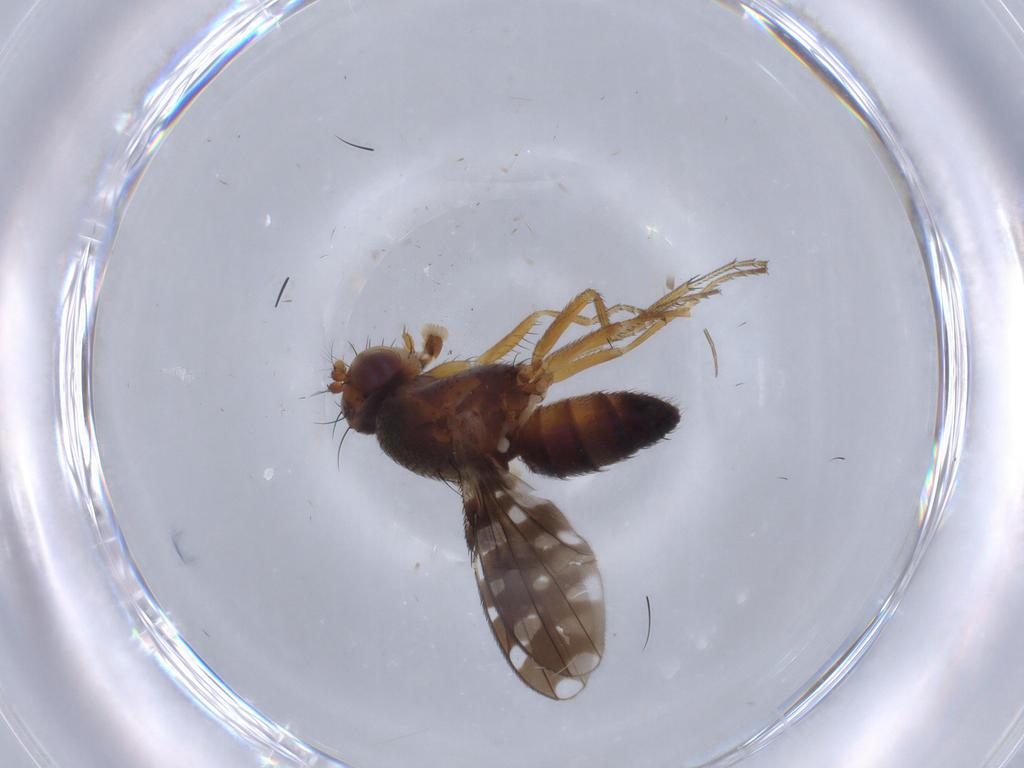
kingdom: Animalia
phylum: Arthropoda
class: Insecta
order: Diptera
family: Ephydridae
